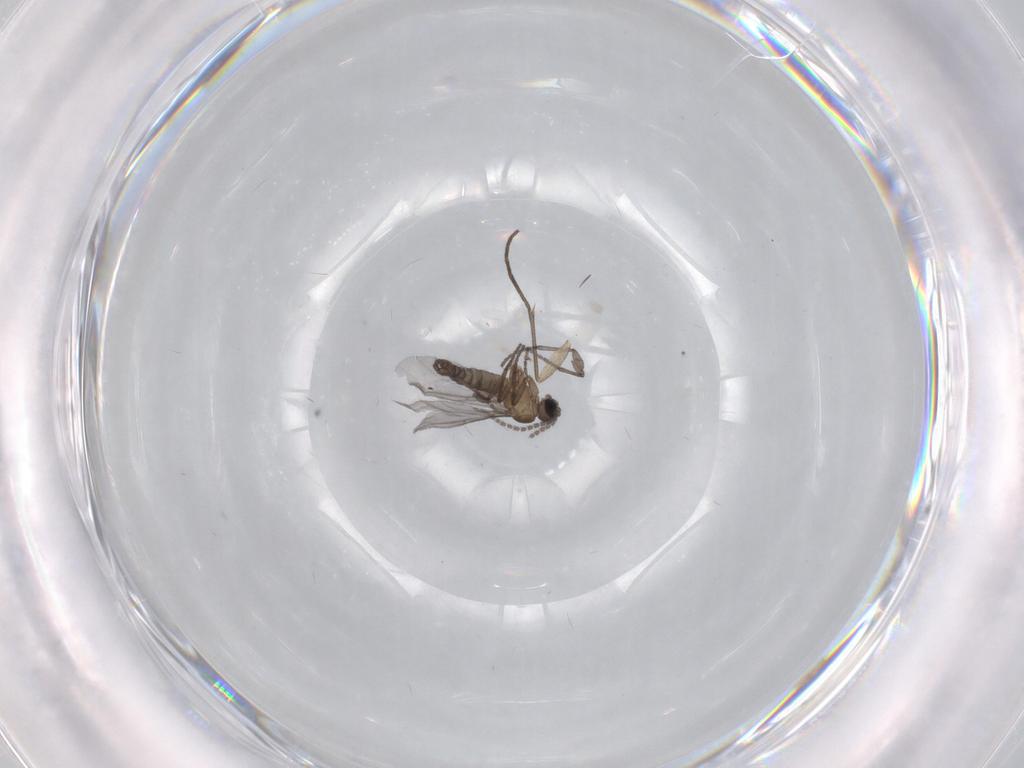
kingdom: Animalia
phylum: Arthropoda
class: Insecta
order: Diptera
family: Sciaridae
